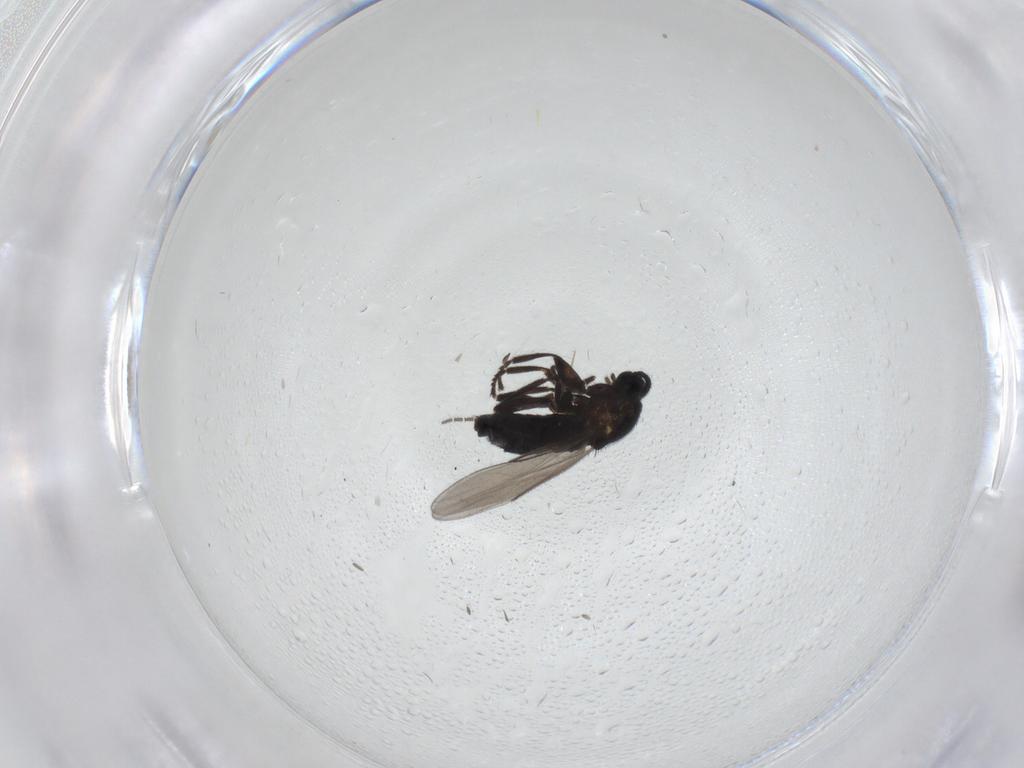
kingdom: Animalia
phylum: Arthropoda
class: Insecta
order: Diptera
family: Scatopsidae
